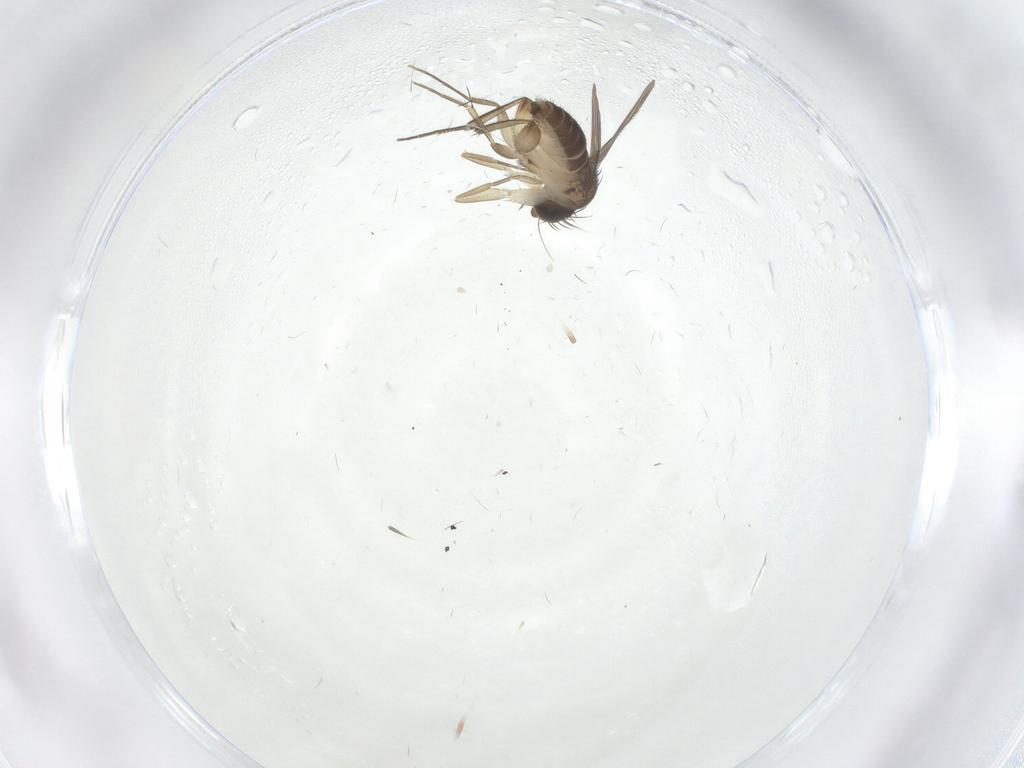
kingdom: Animalia
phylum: Arthropoda
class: Insecta
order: Diptera
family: Phoridae
